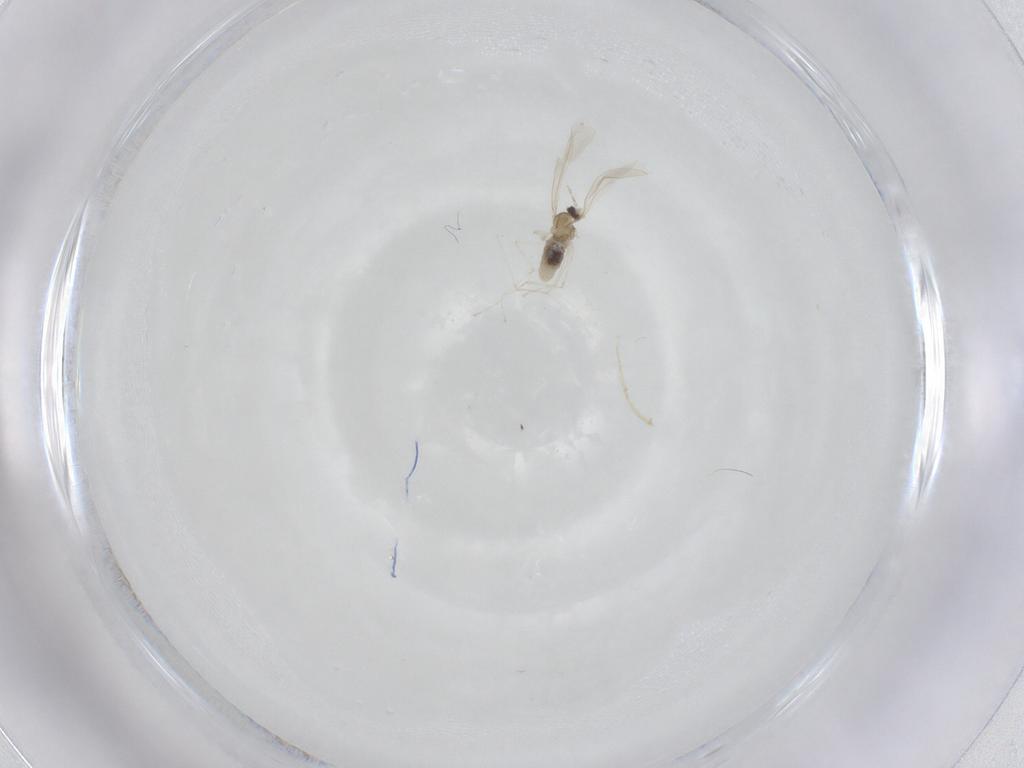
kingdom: Animalia
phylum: Arthropoda
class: Insecta
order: Diptera
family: Cecidomyiidae
